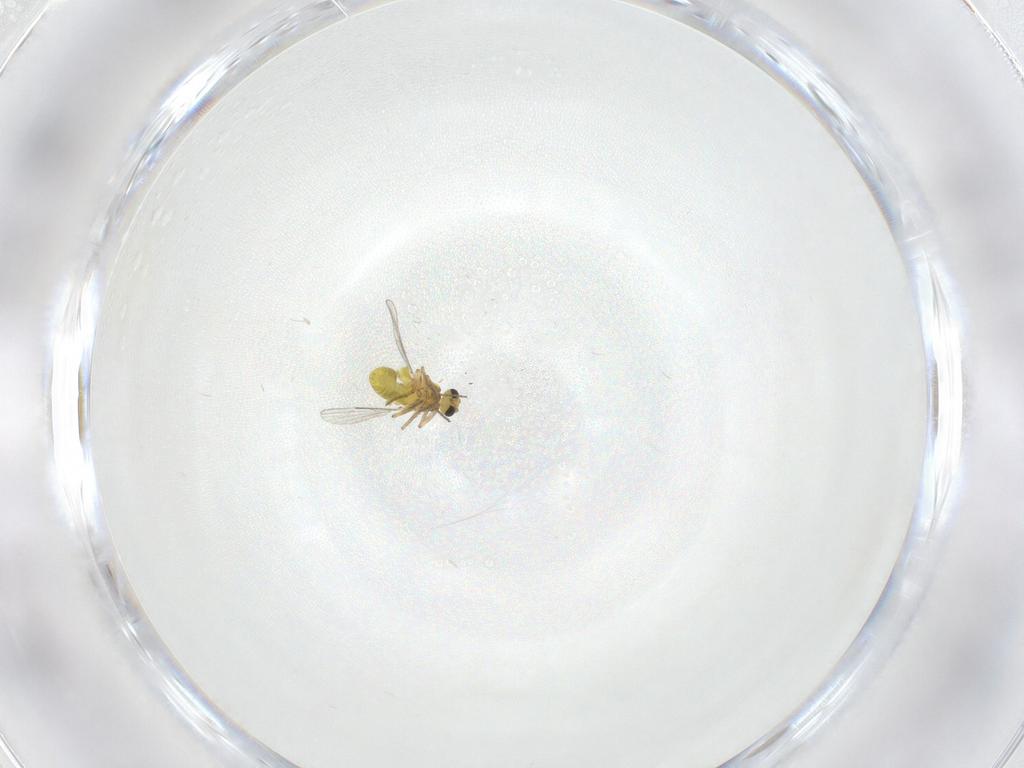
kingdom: Animalia
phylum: Arthropoda
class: Insecta
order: Diptera
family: Ceratopogonidae
